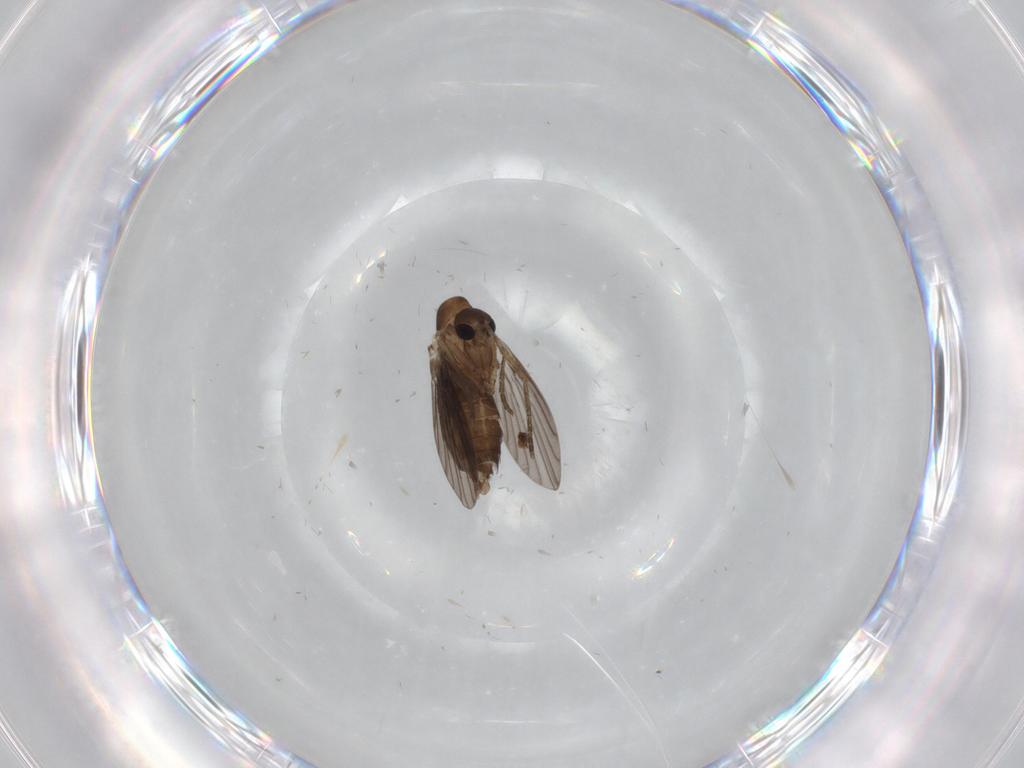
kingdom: Animalia
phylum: Arthropoda
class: Insecta
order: Diptera
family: Psychodidae
